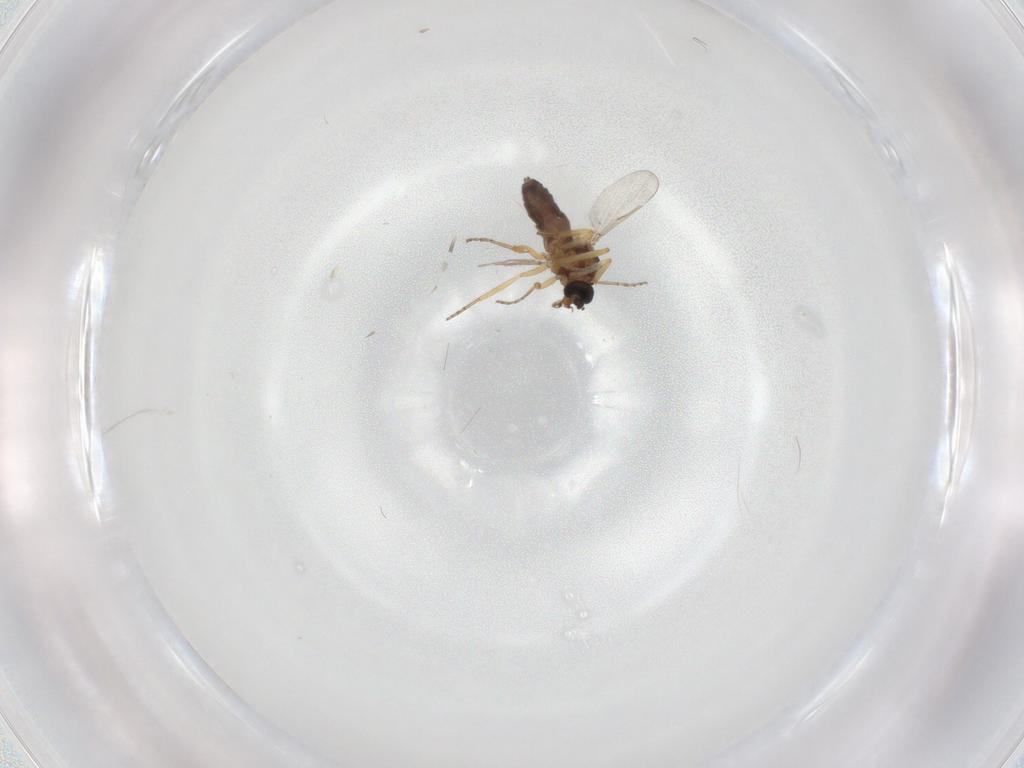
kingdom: Animalia
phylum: Arthropoda
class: Insecta
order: Diptera
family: Ceratopogonidae
